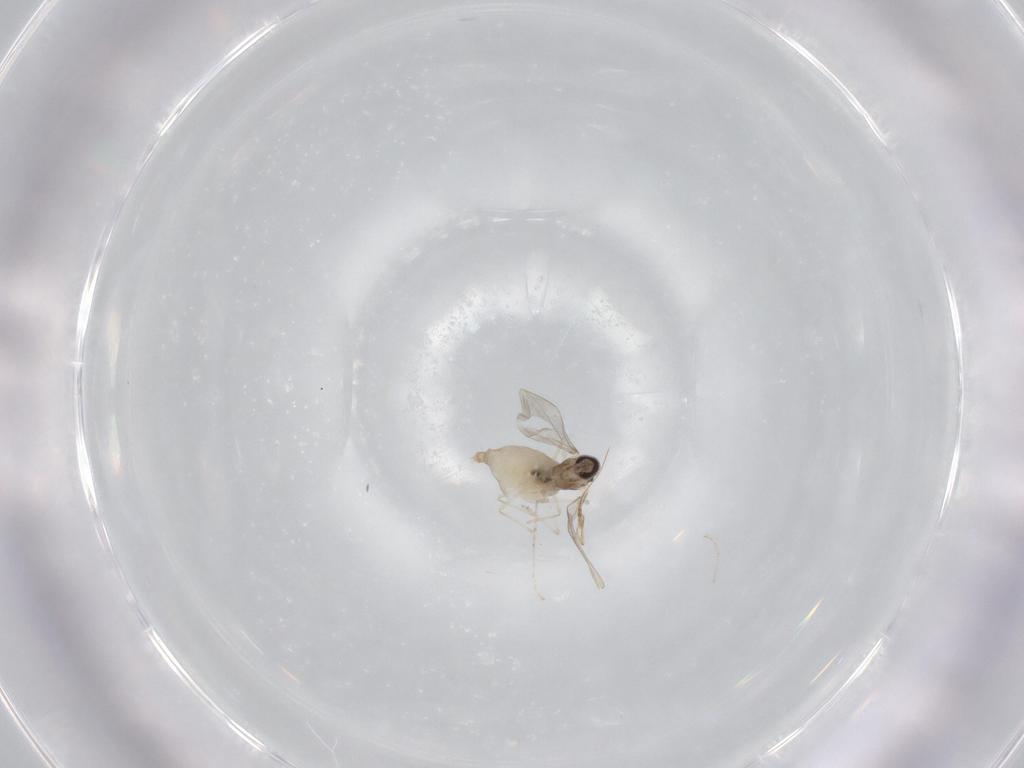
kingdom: Animalia
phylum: Arthropoda
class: Insecta
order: Diptera
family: Cecidomyiidae
